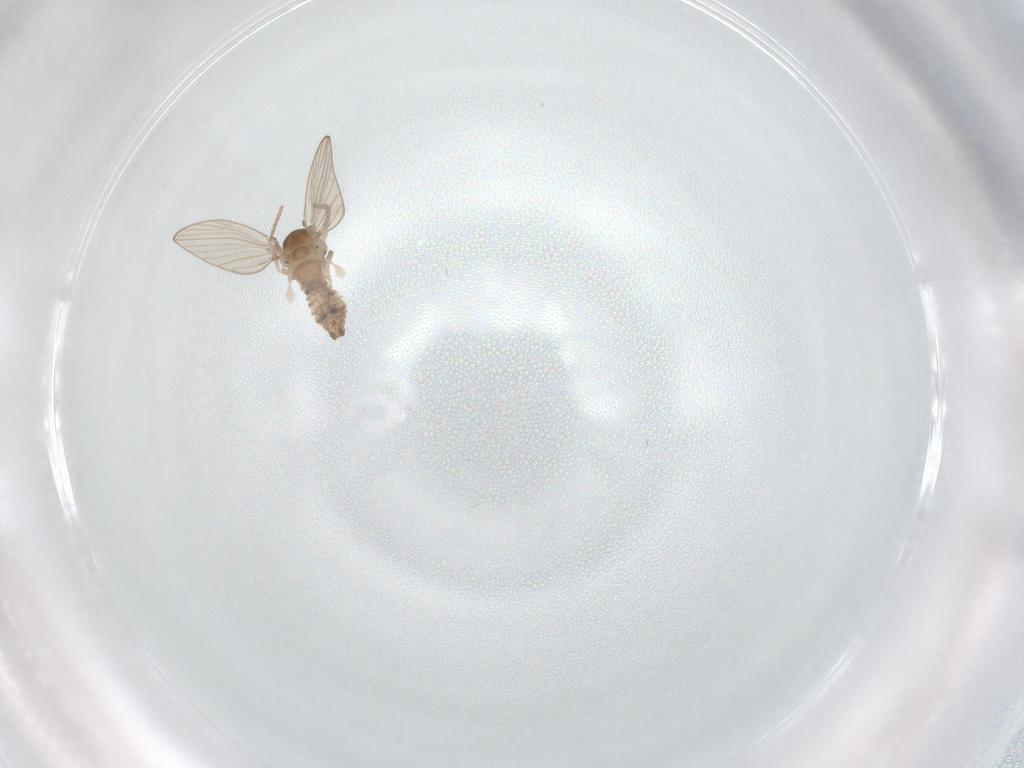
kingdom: Animalia
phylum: Arthropoda
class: Insecta
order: Diptera
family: Psychodidae
